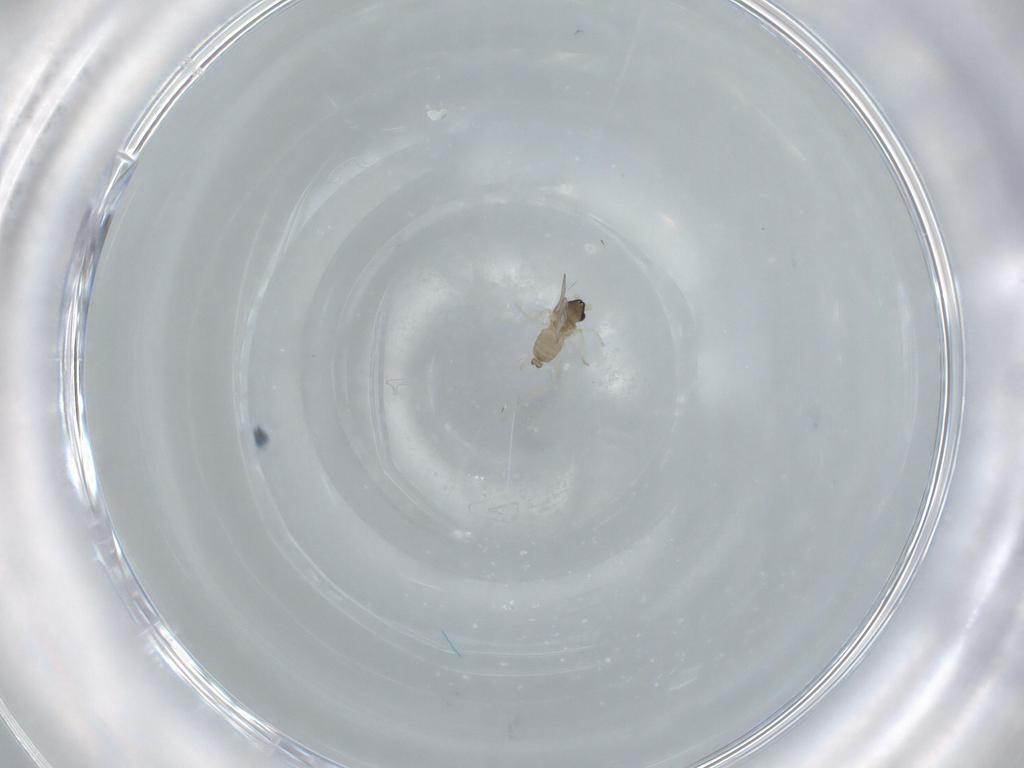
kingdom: Animalia
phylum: Arthropoda
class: Insecta
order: Diptera
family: Cecidomyiidae
